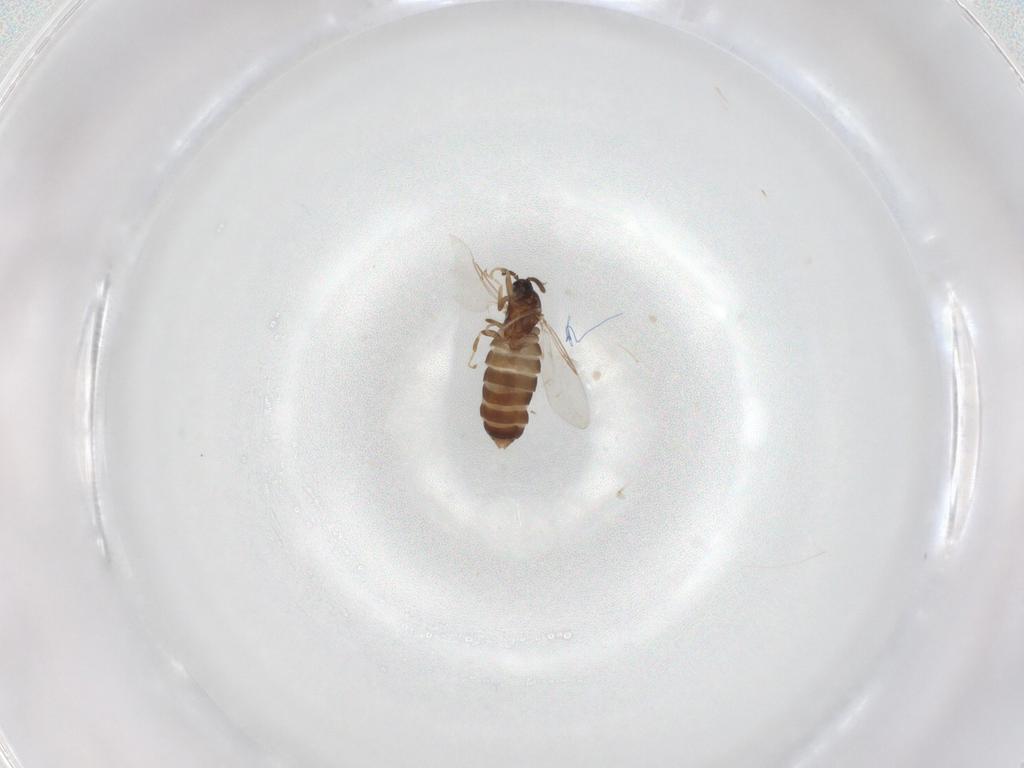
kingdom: Animalia
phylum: Arthropoda
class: Insecta
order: Diptera
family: Scatopsidae
